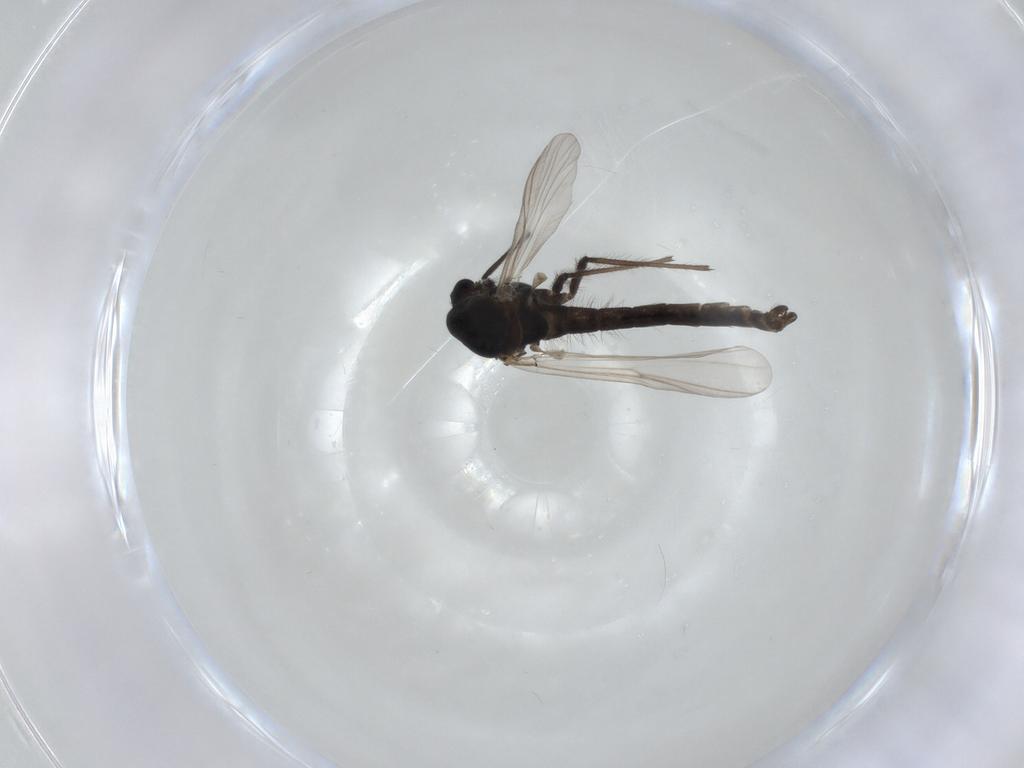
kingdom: Animalia
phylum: Arthropoda
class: Insecta
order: Diptera
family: Chironomidae
